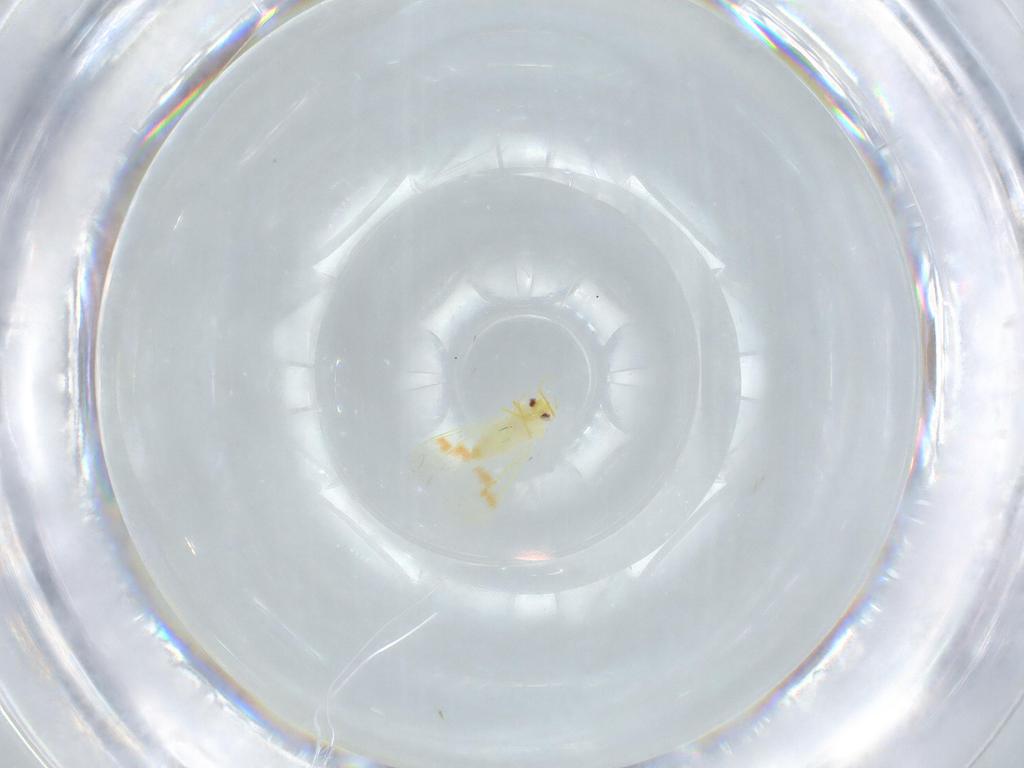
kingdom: Animalia
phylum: Arthropoda
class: Insecta
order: Hemiptera
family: Aleyrodidae
